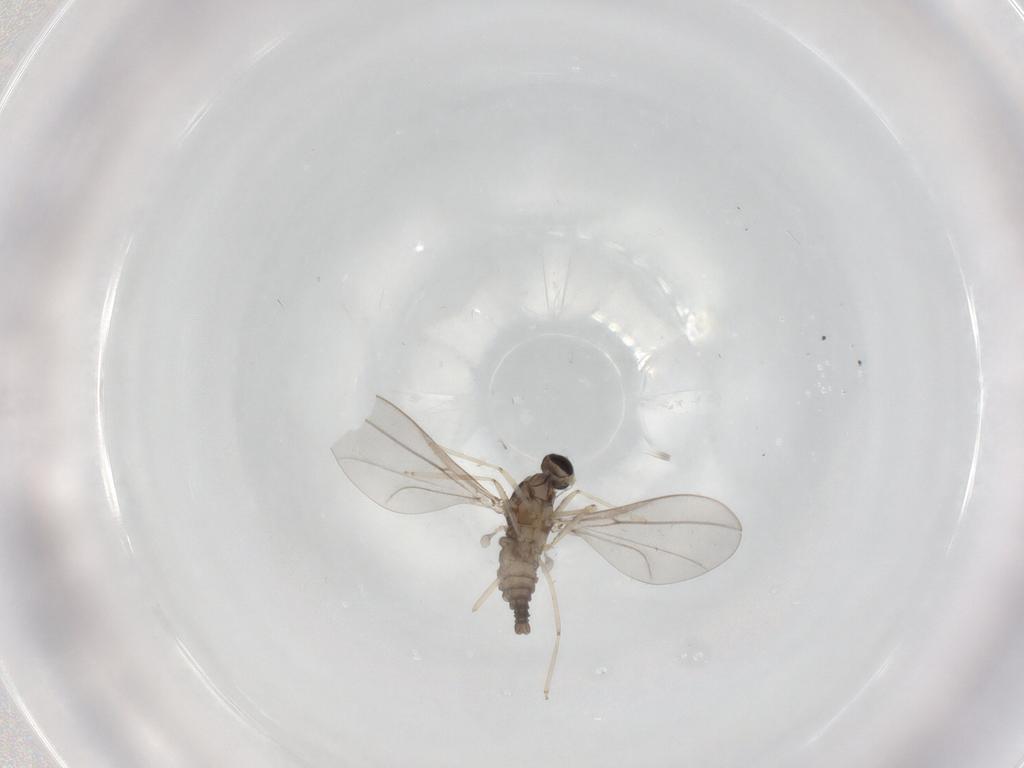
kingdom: Animalia
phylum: Arthropoda
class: Insecta
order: Diptera
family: Cecidomyiidae
